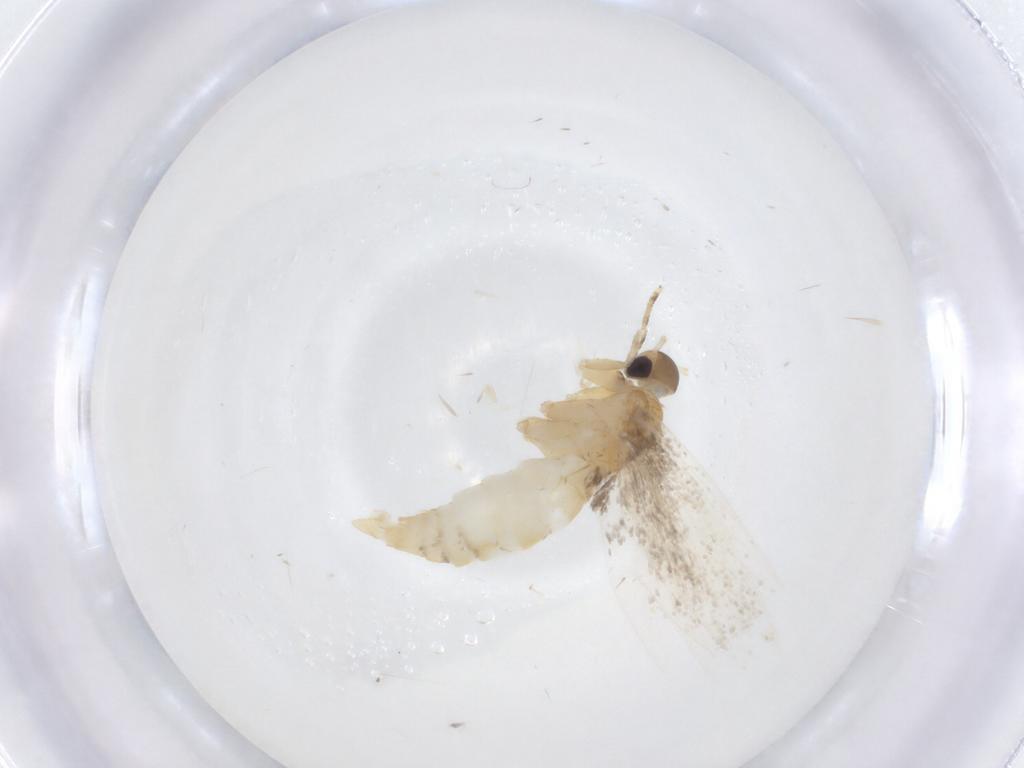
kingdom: Animalia
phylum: Arthropoda
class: Insecta
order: Lepidoptera
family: Oecophoridae
